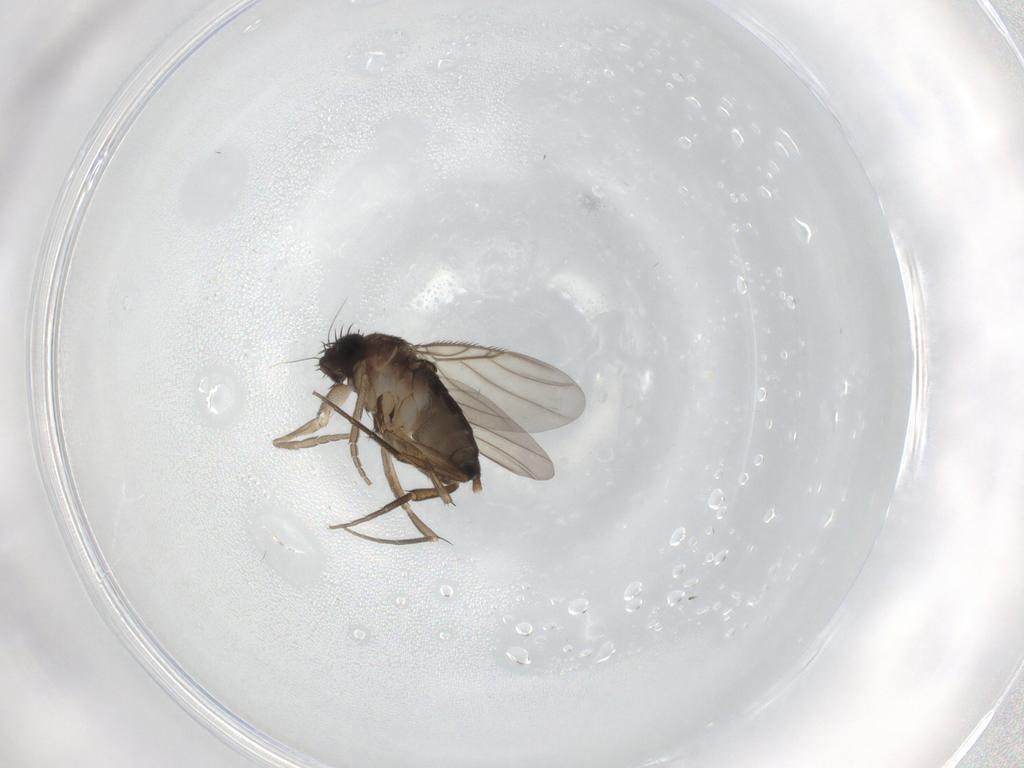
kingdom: Animalia
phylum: Arthropoda
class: Insecta
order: Diptera
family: Phoridae
